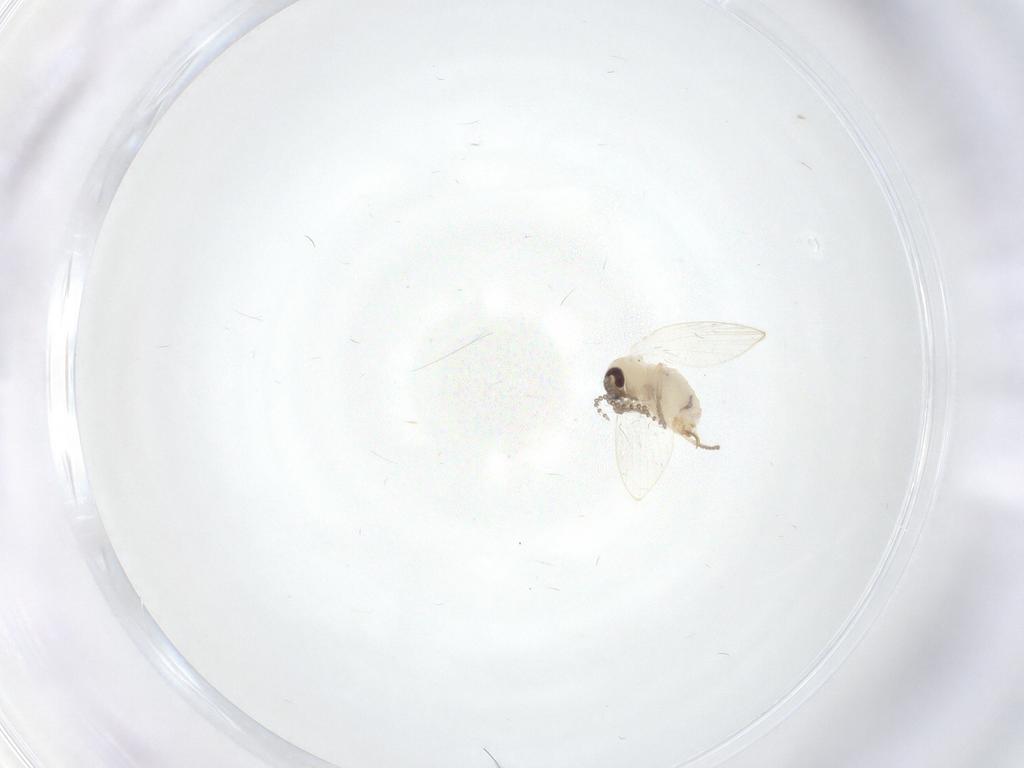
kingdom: Animalia
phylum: Arthropoda
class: Insecta
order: Diptera
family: Psychodidae
